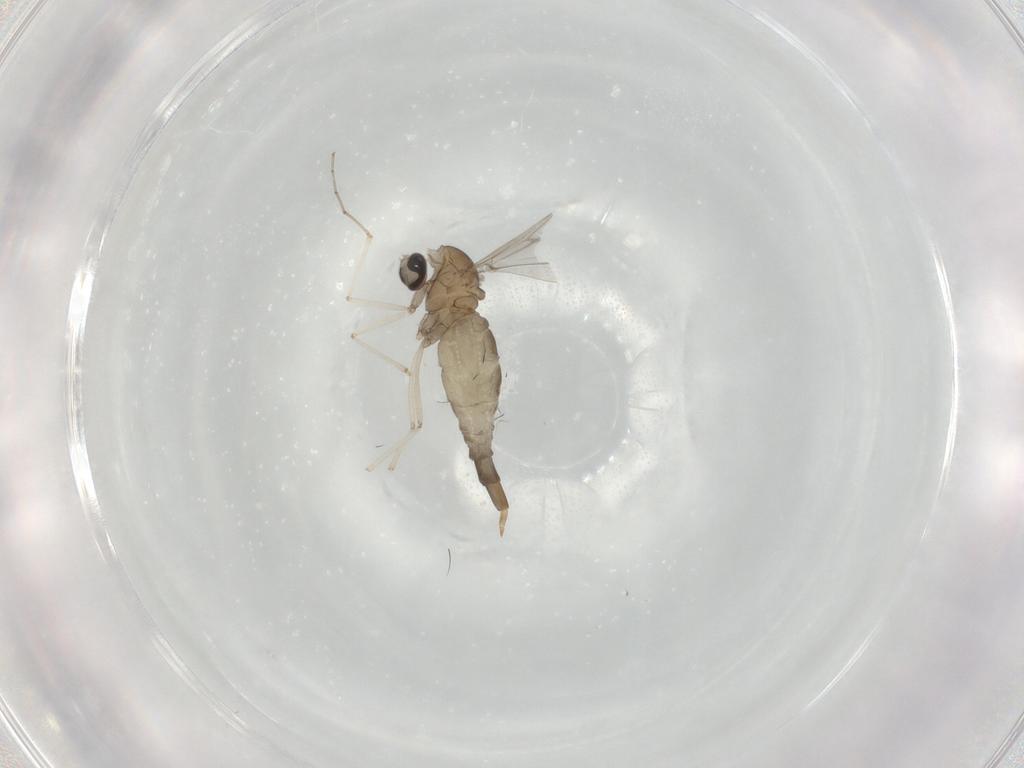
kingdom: Animalia
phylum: Arthropoda
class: Insecta
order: Diptera
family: Cecidomyiidae
